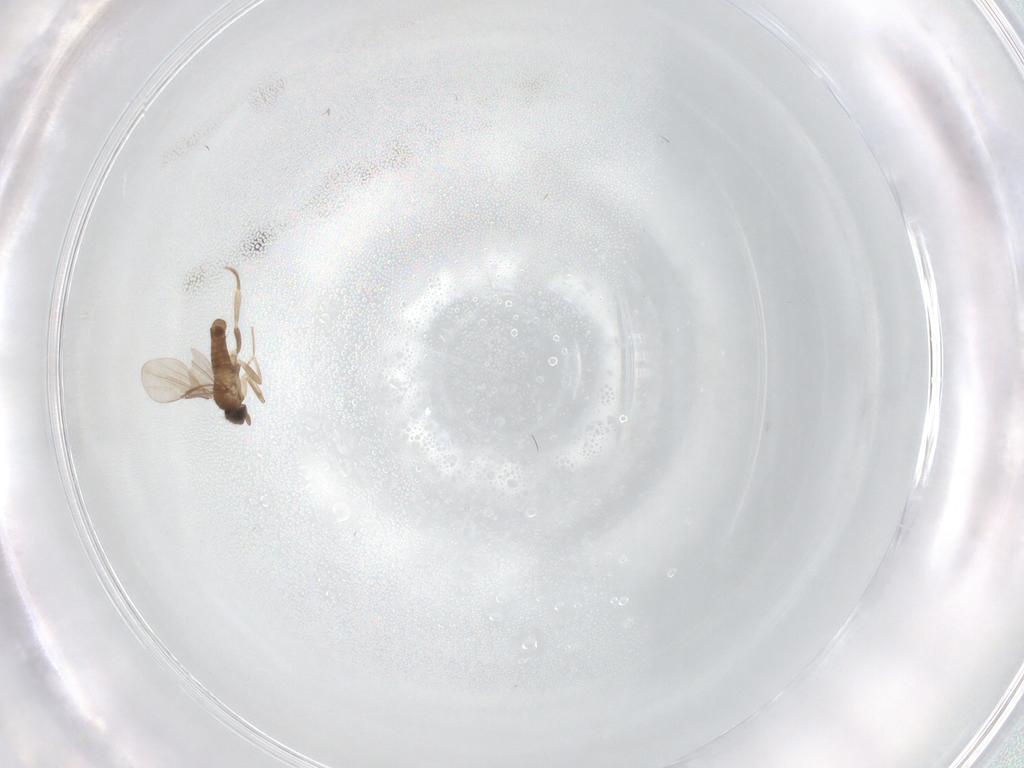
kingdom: Animalia
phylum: Arthropoda
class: Insecta
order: Diptera
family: Tabanidae
